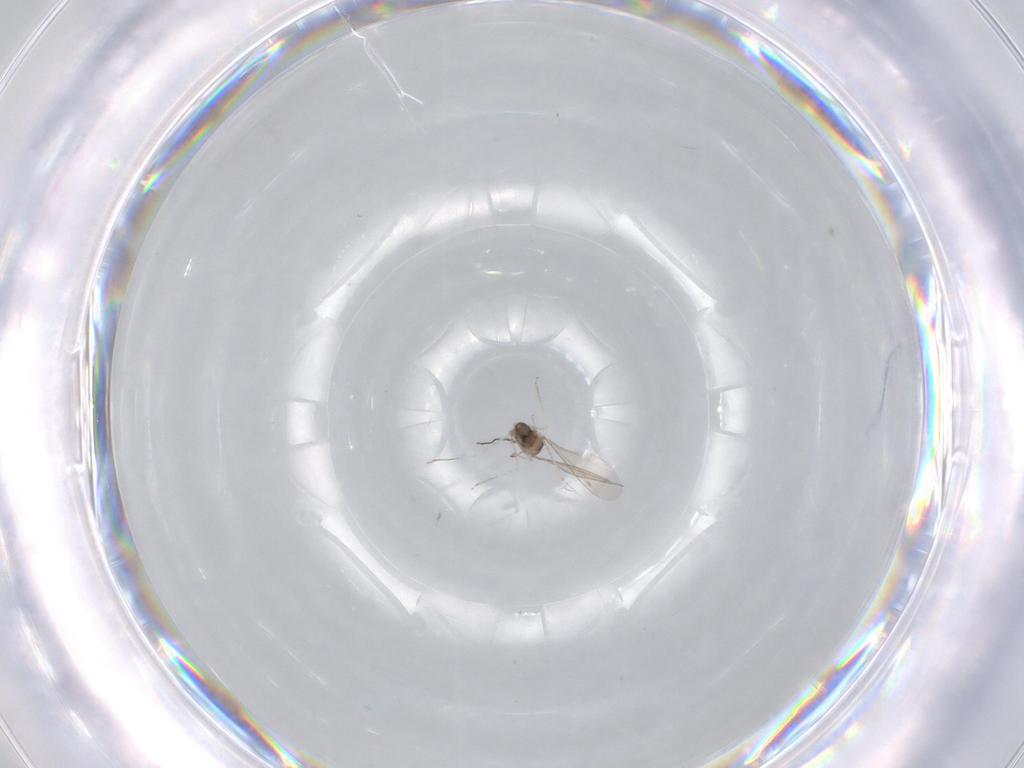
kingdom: Animalia
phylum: Arthropoda
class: Insecta
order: Diptera
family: Cecidomyiidae
